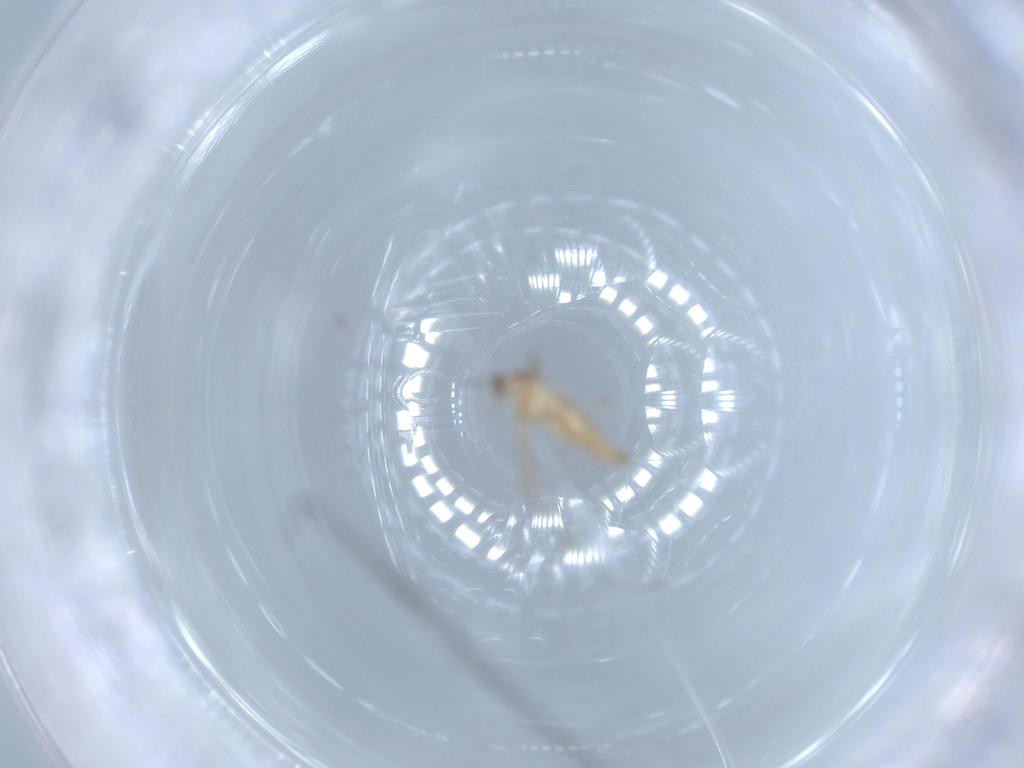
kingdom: Animalia
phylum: Arthropoda
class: Insecta
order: Diptera
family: Cecidomyiidae
